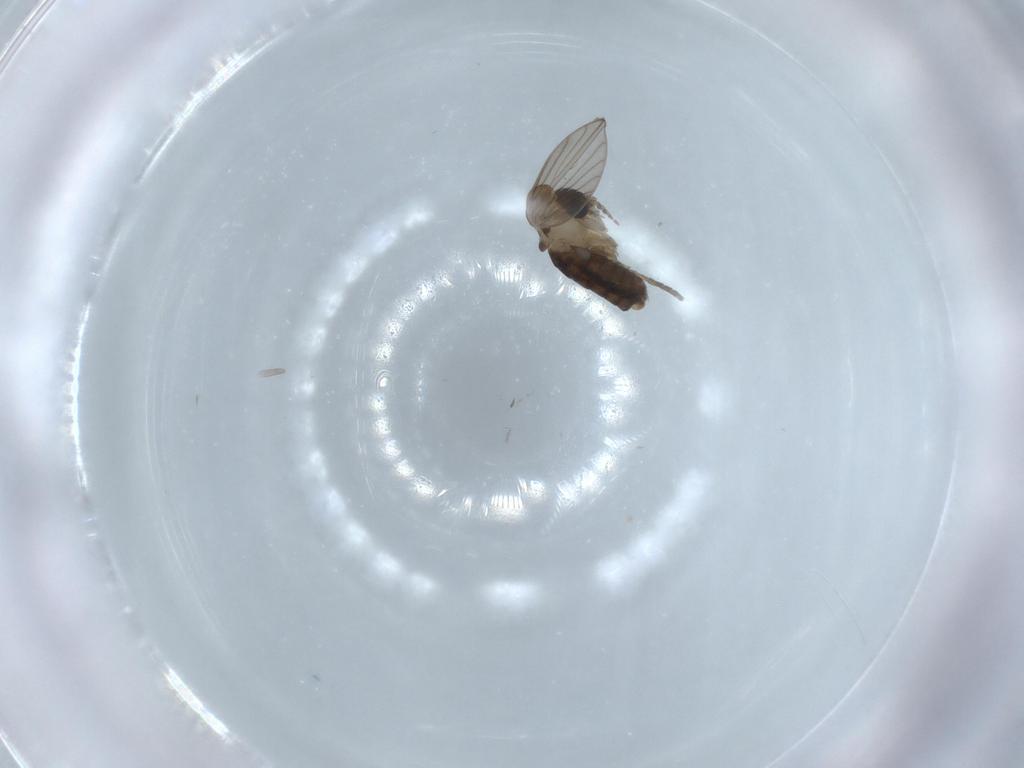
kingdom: Animalia
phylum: Arthropoda
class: Insecta
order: Diptera
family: Psychodidae
